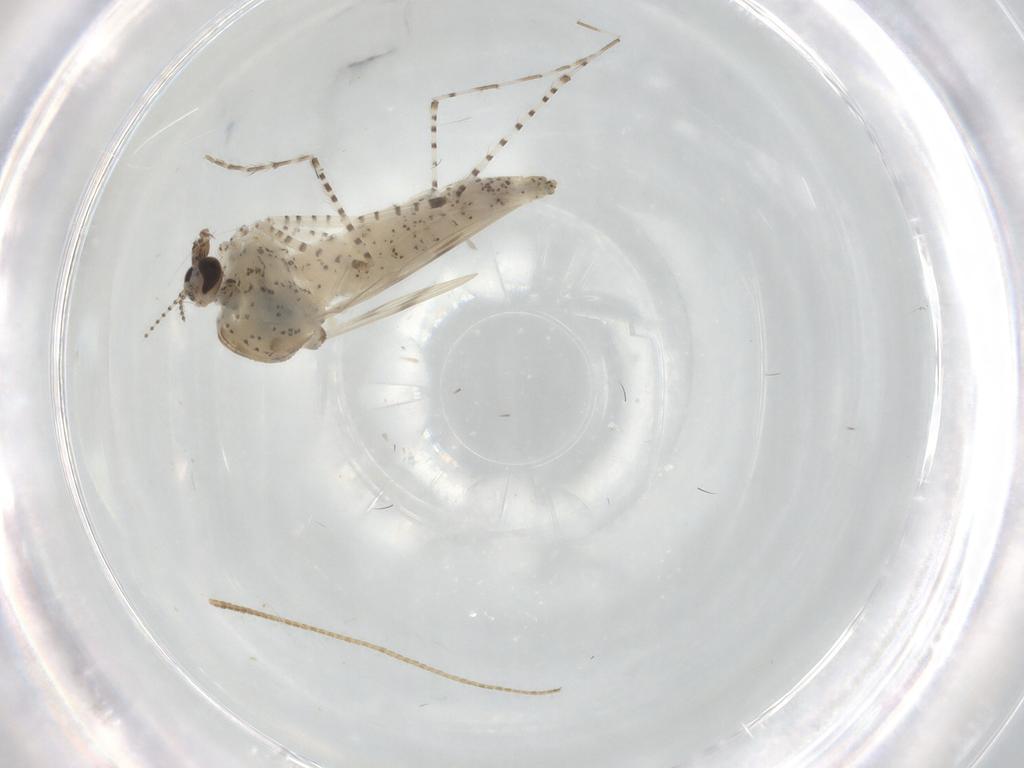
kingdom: Animalia
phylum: Arthropoda
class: Insecta
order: Diptera
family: Chaoboridae
